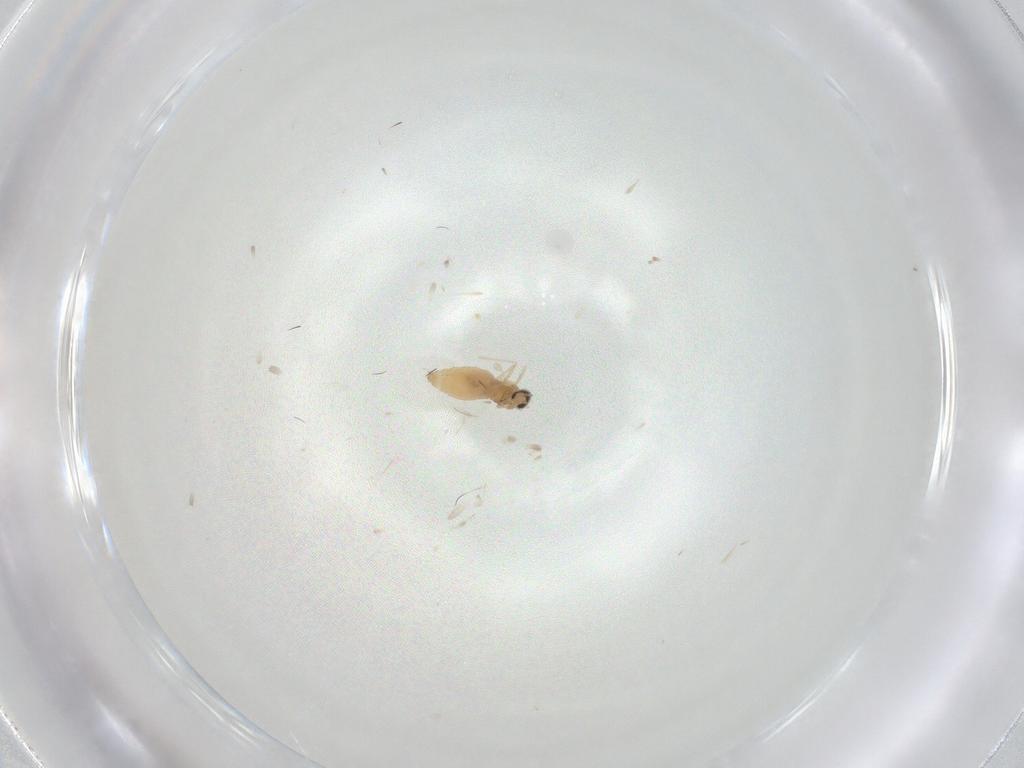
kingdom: Animalia
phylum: Arthropoda
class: Insecta
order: Diptera
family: Cecidomyiidae
